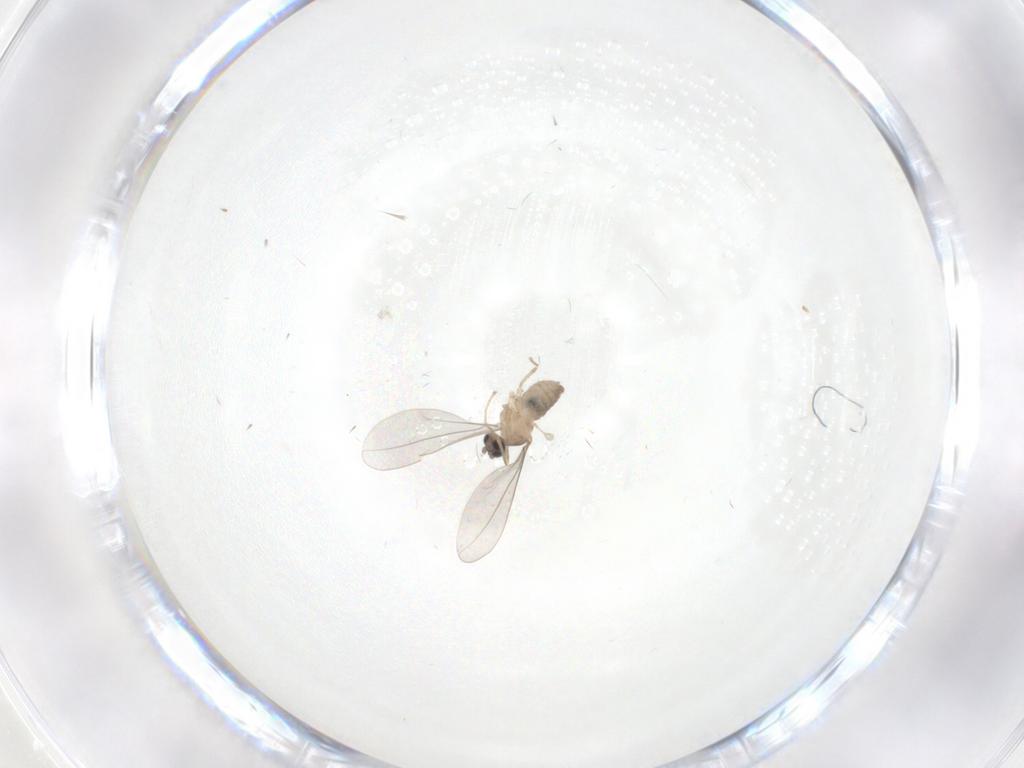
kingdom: Animalia
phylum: Arthropoda
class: Insecta
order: Diptera
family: Cecidomyiidae
